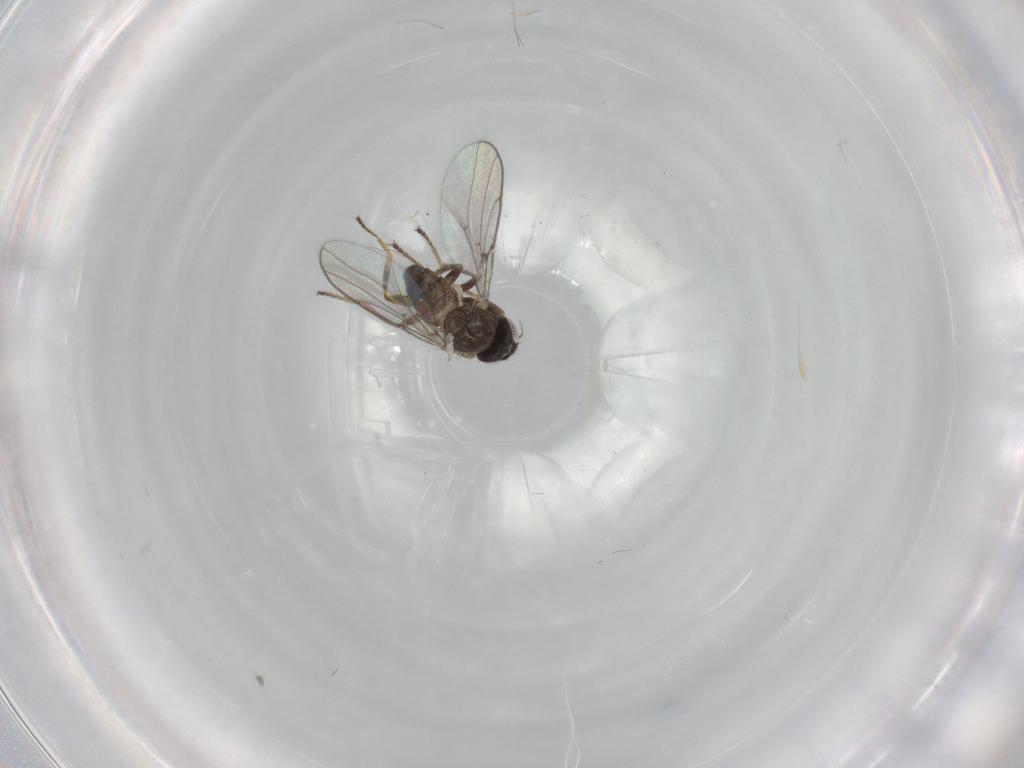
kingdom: Animalia
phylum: Arthropoda
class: Insecta
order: Diptera
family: Chloropidae
